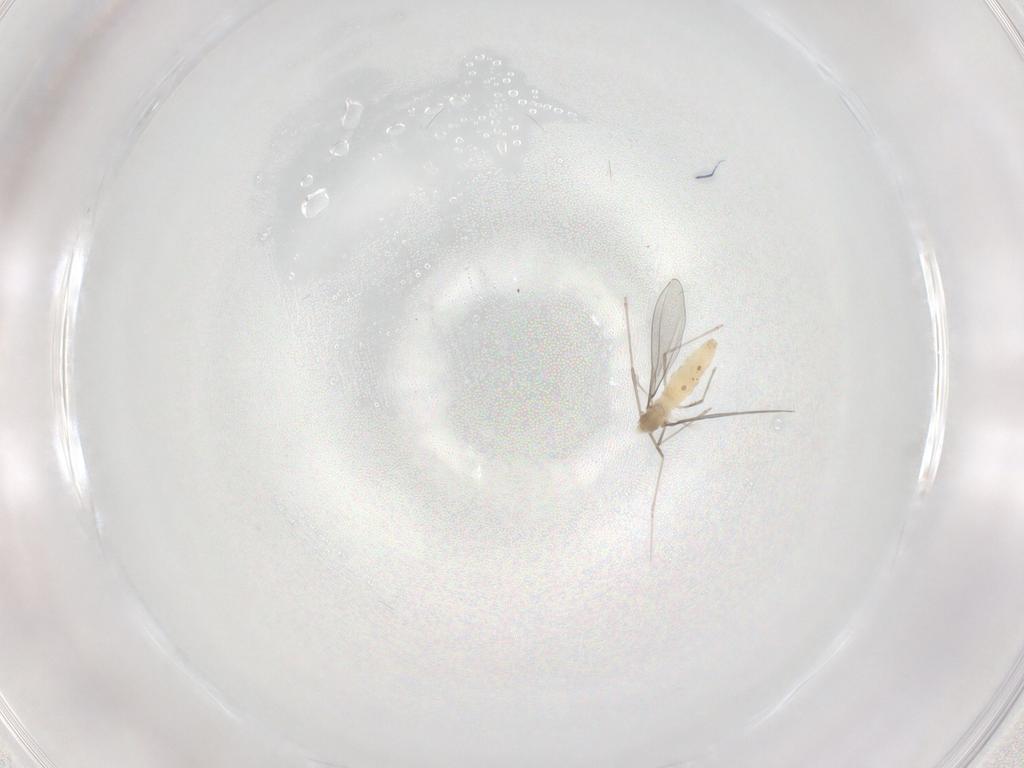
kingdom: Animalia
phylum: Arthropoda
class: Insecta
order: Diptera
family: Cecidomyiidae
